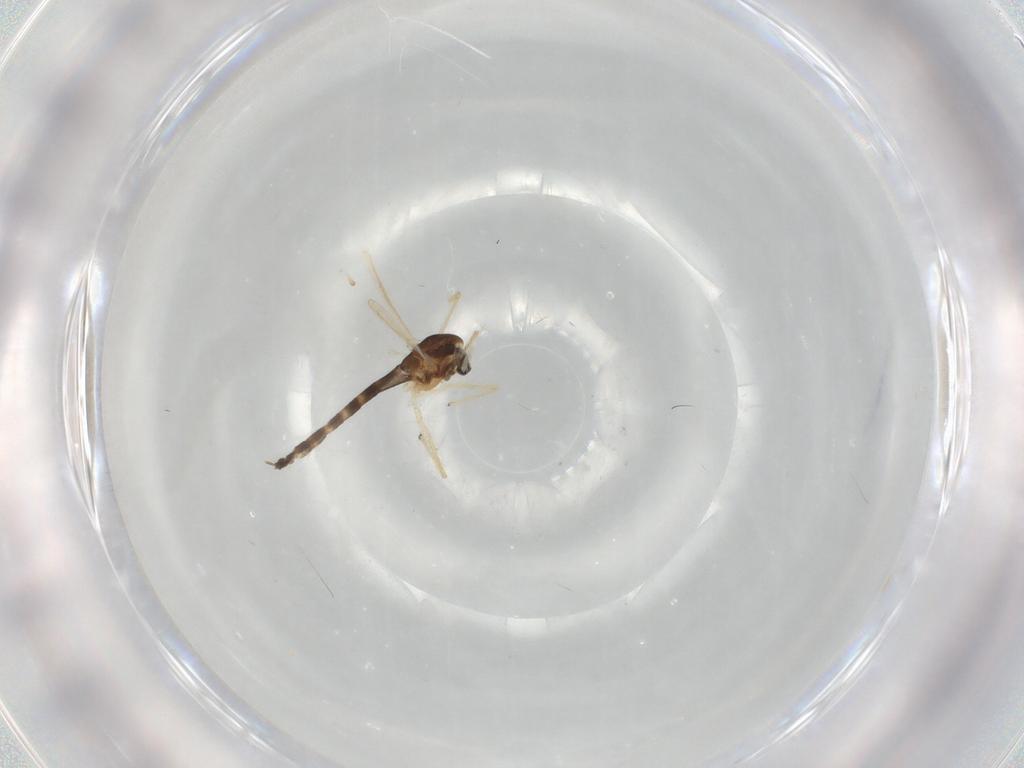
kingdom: Animalia
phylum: Arthropoda
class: Insecta
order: Diptera
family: Chironomidae
